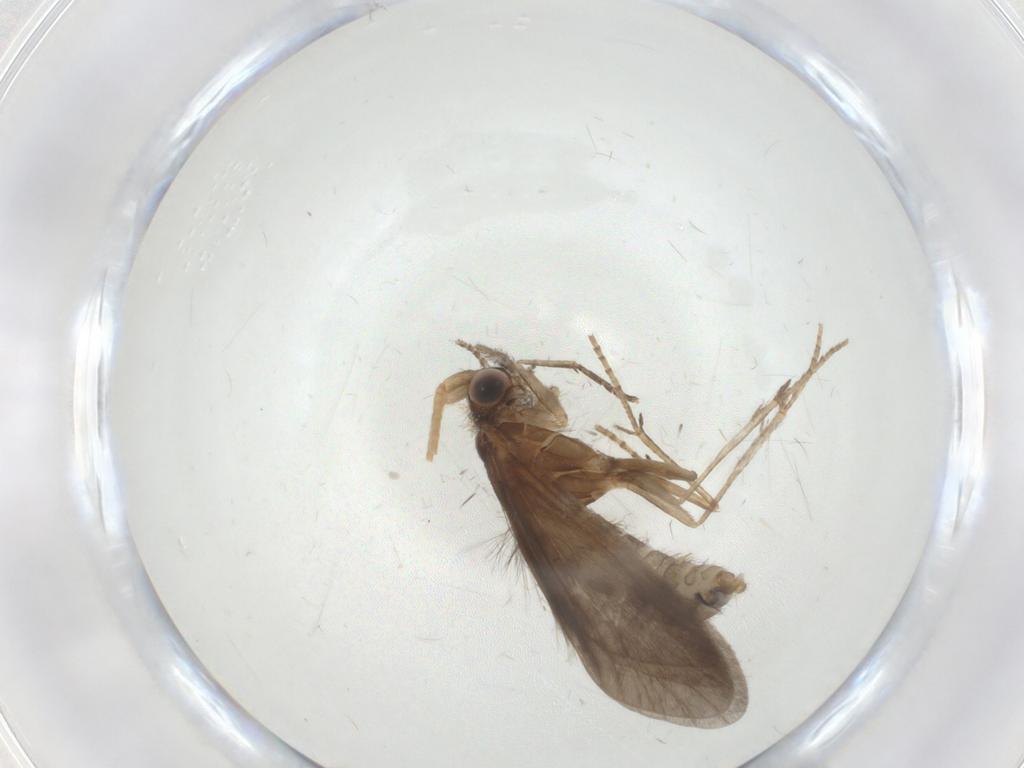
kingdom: Animalia
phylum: Arthropoda
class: Insecta
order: Trichoptera
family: Helicopsychidae
